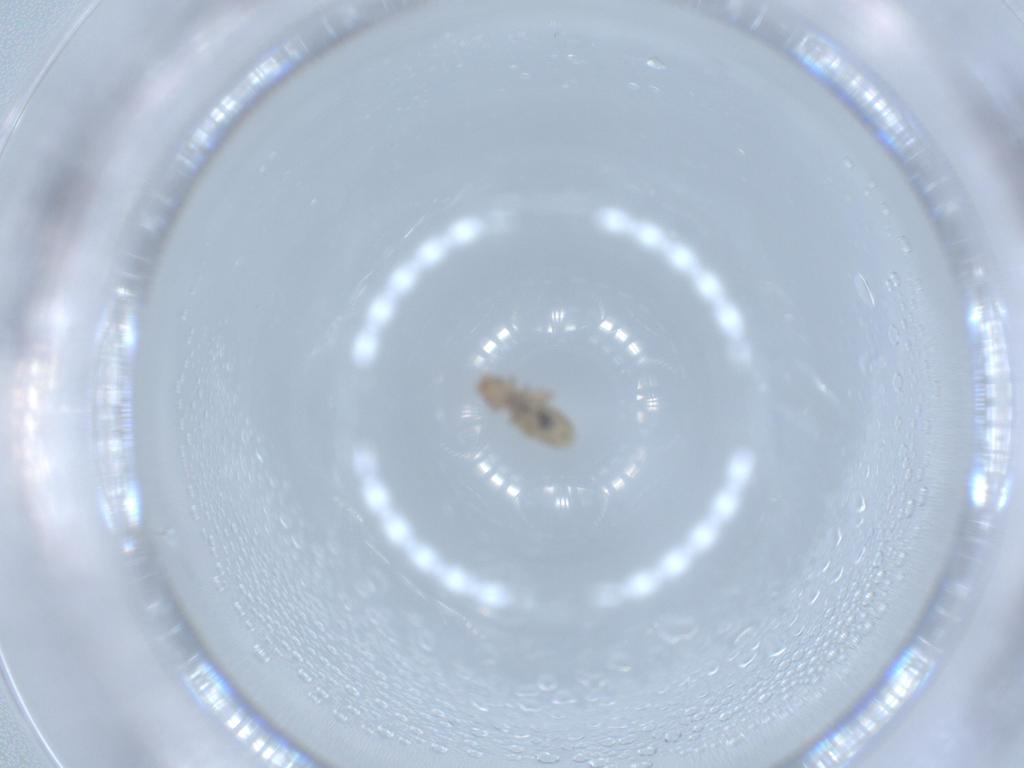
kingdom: Animalia
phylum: Arthropoda
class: Insecta
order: Psocodea
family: Liposcelididae
